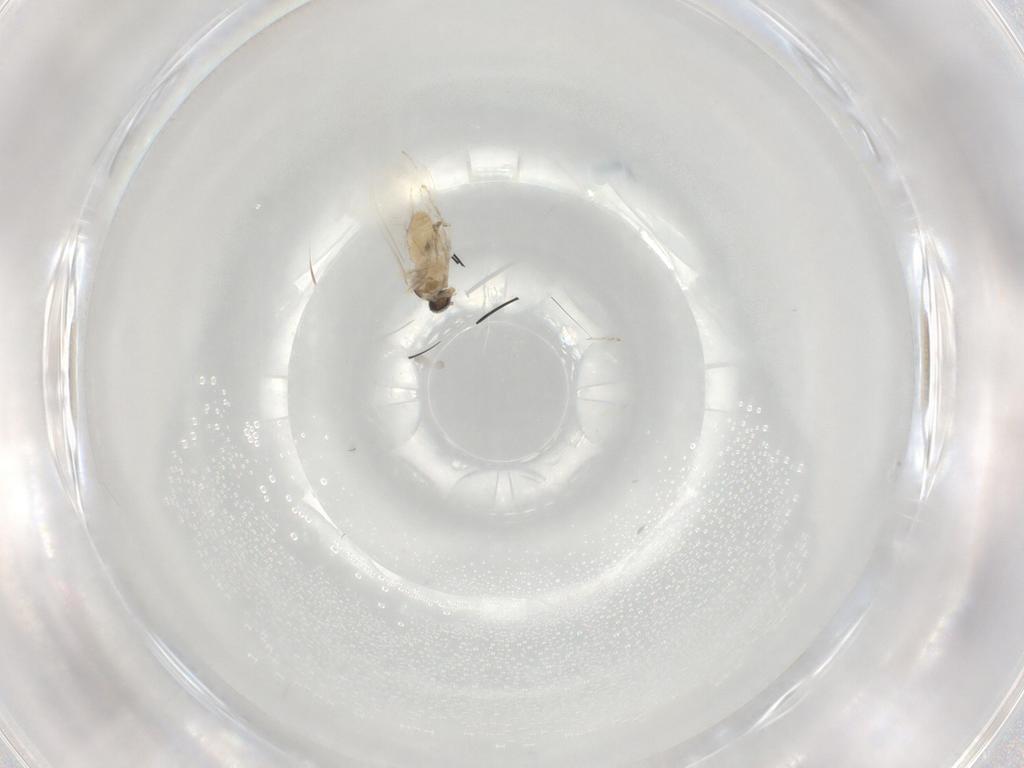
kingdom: Animalia
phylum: Arthropoda
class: Insecta
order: Diptera
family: Cecidomyiidae
